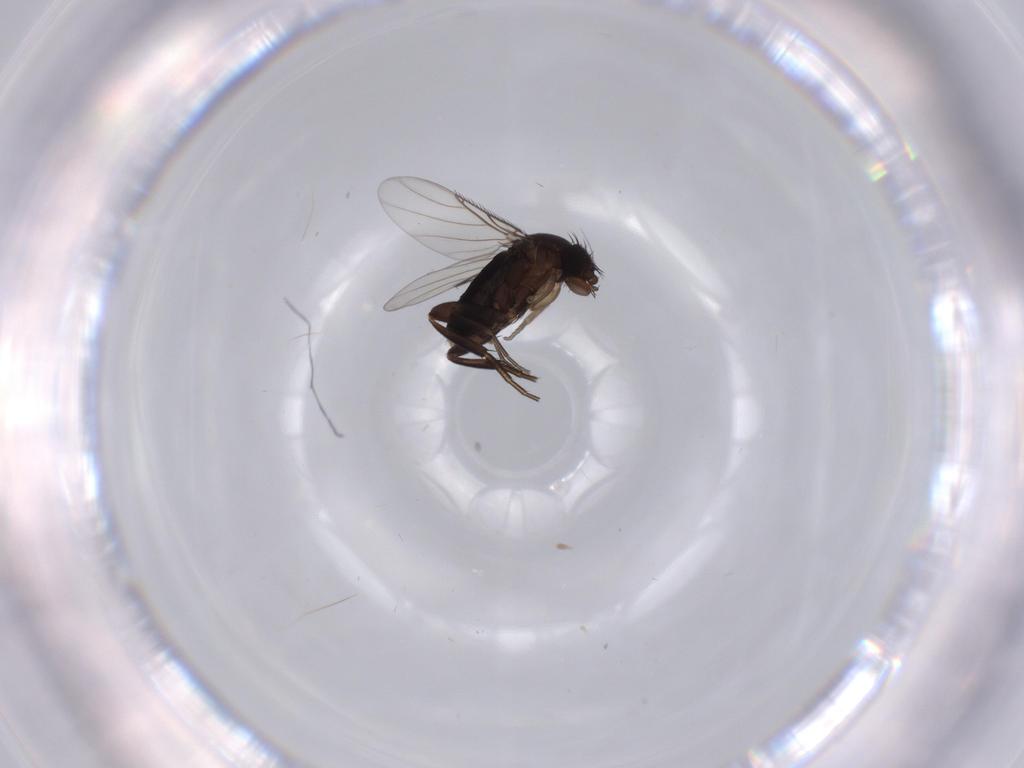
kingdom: Animalia
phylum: Arthropoda
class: Insecta
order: Diptera
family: Phoridae
